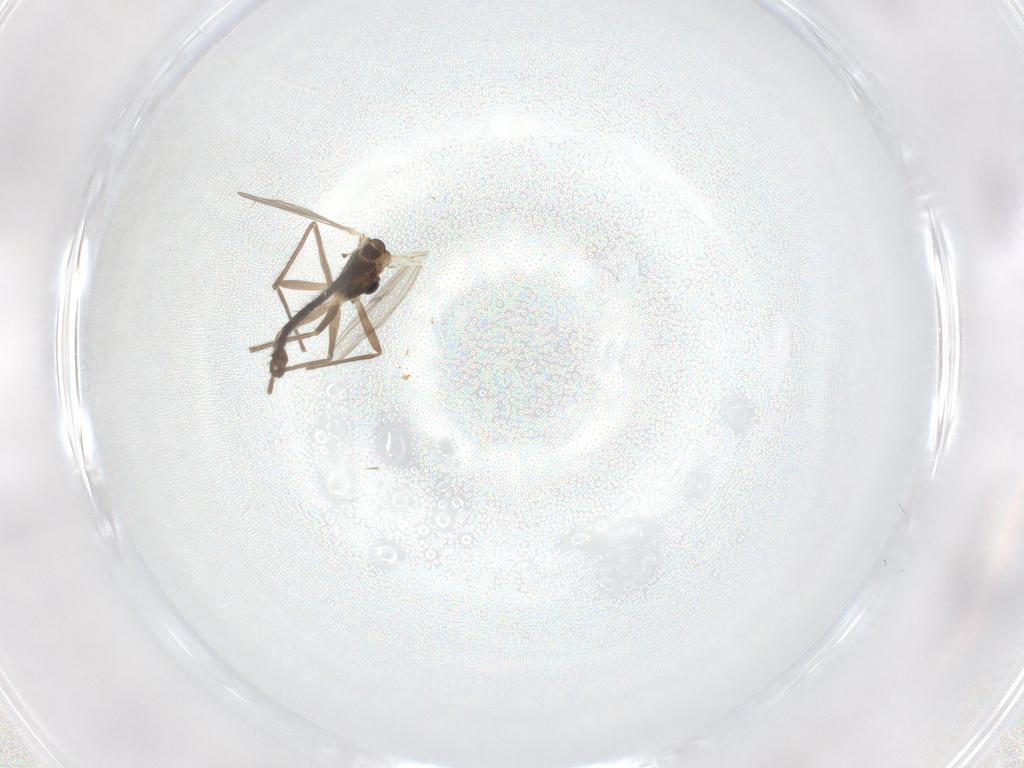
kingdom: Animalia
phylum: Arthropoda
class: Insecta
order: Diptera
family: Chironomidae
